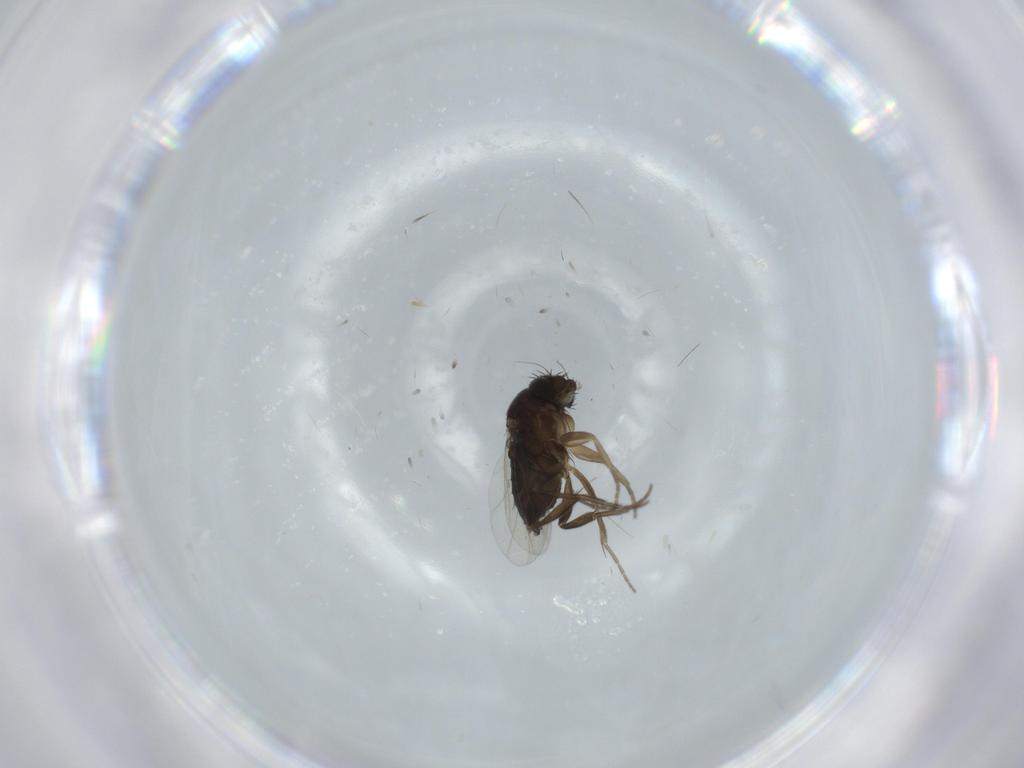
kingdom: Animalia
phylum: Arthropoda
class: Insecta
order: Diptera
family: Phoridae
